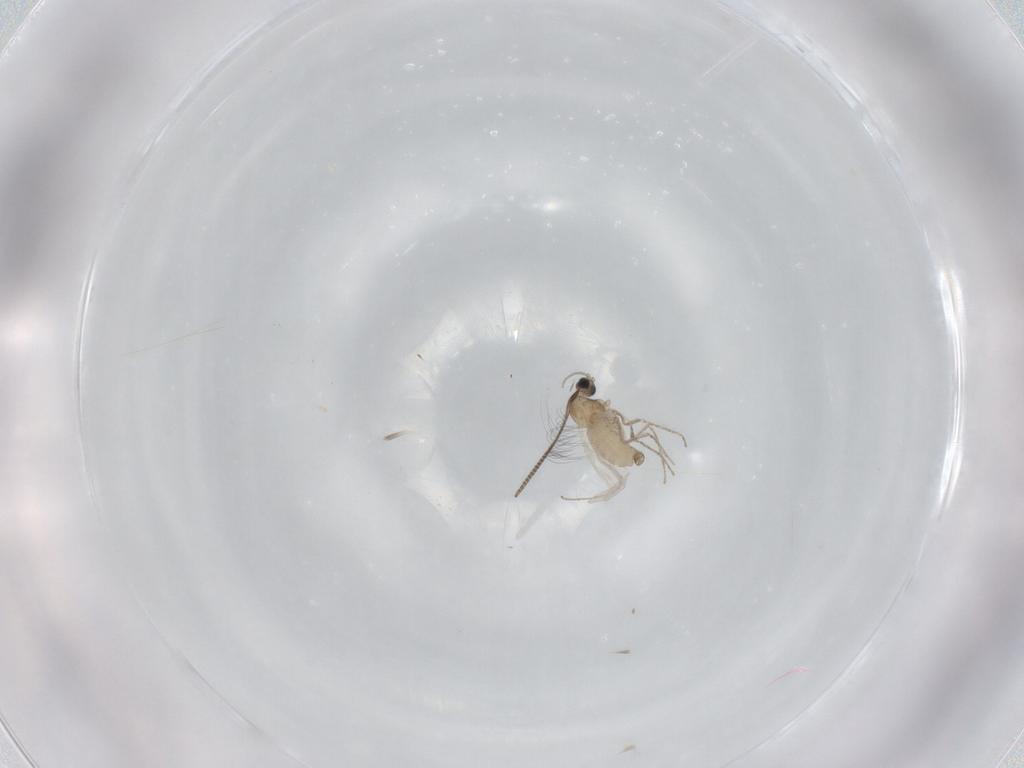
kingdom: Animalia
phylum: Arthropoda
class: Insecta
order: Diptera
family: Cecidomyiidae
